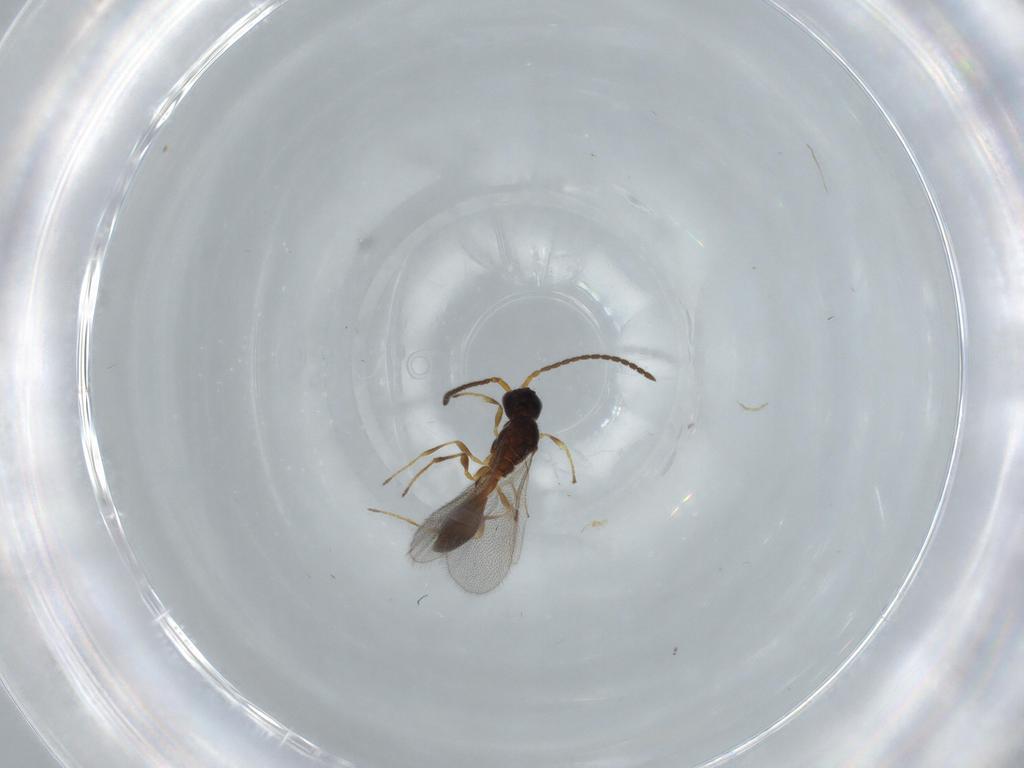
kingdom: Animalia
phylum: Arthropoda
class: Insecta
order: Hymenoptera
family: Diapriidae
